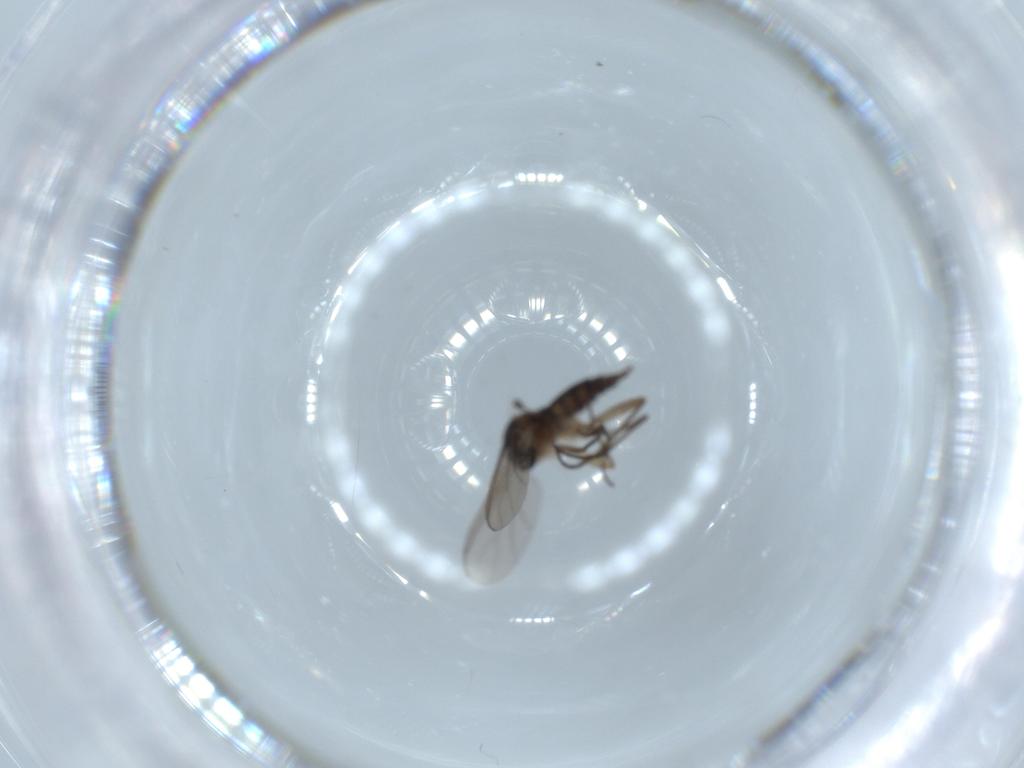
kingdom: Animalia
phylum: Arthropoda
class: Insecta
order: Diptera
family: Sciaridae
